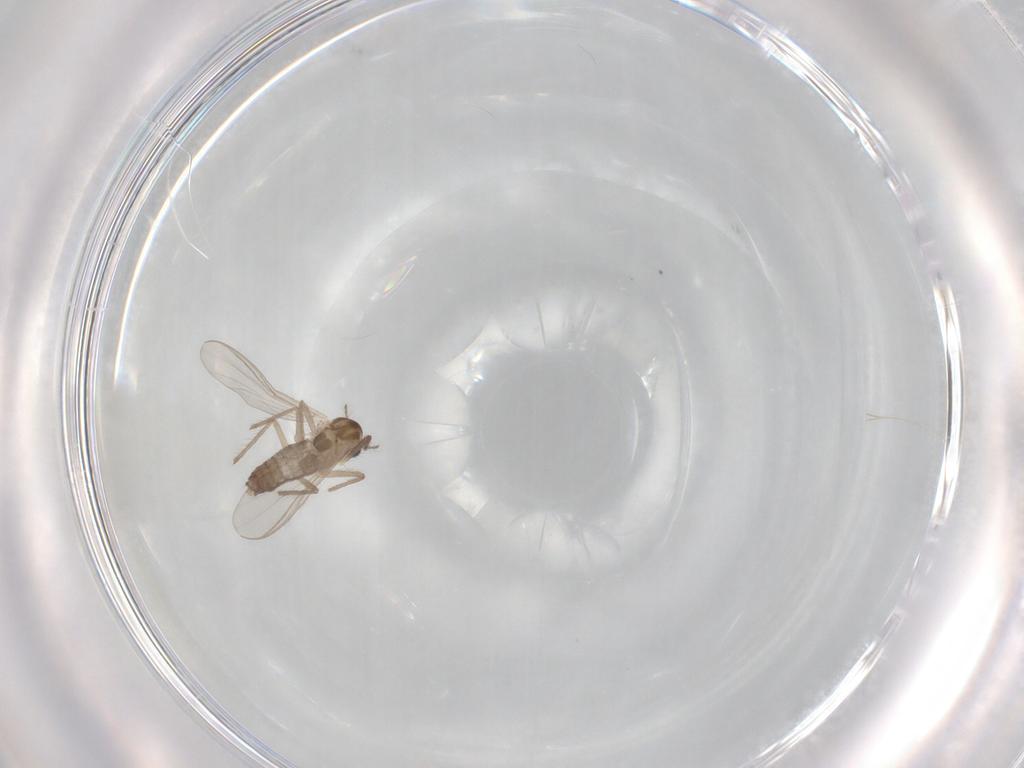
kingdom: Animalia
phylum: Arthropoda
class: Insecta
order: Diptera
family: Chironomidae
